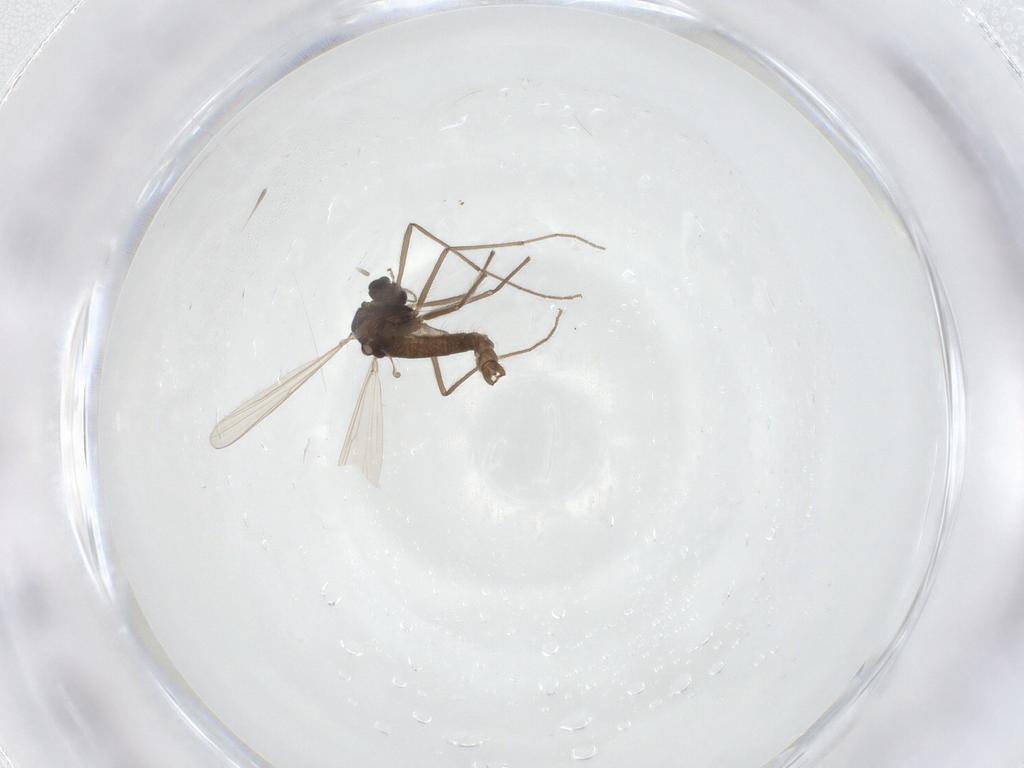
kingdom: Animalia
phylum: Arthropoda
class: Insecta
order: Diptera
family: Chironomidae
